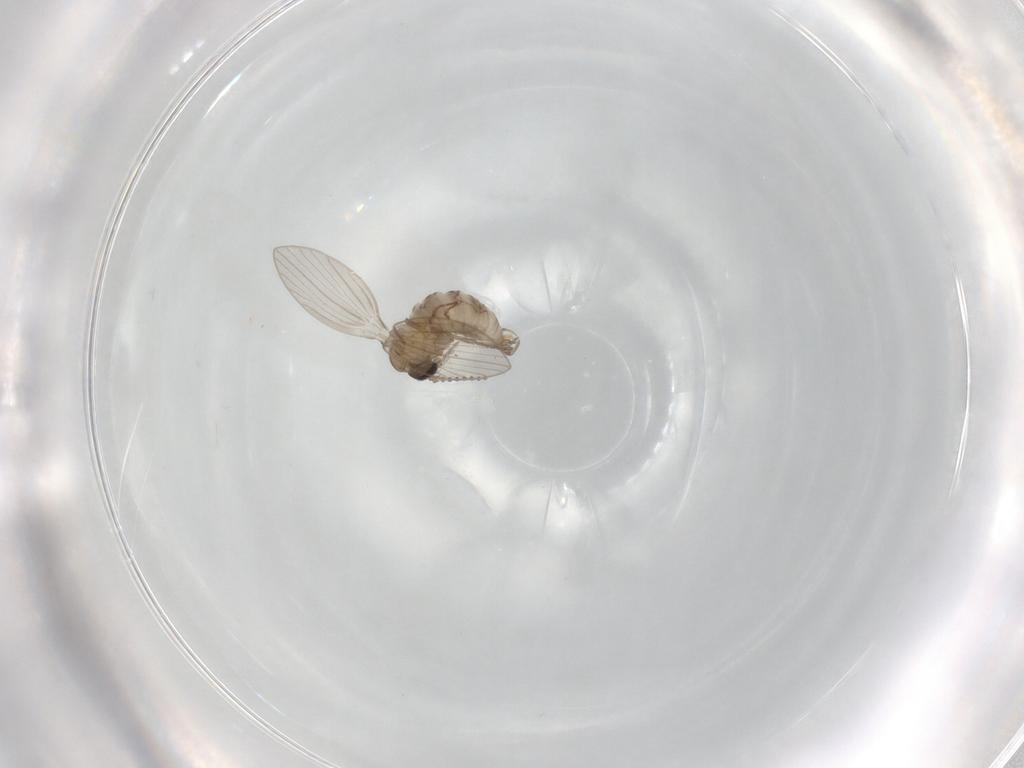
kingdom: Animalia
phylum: Arthropoda
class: Insecta
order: Diptera
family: Psychodidae
